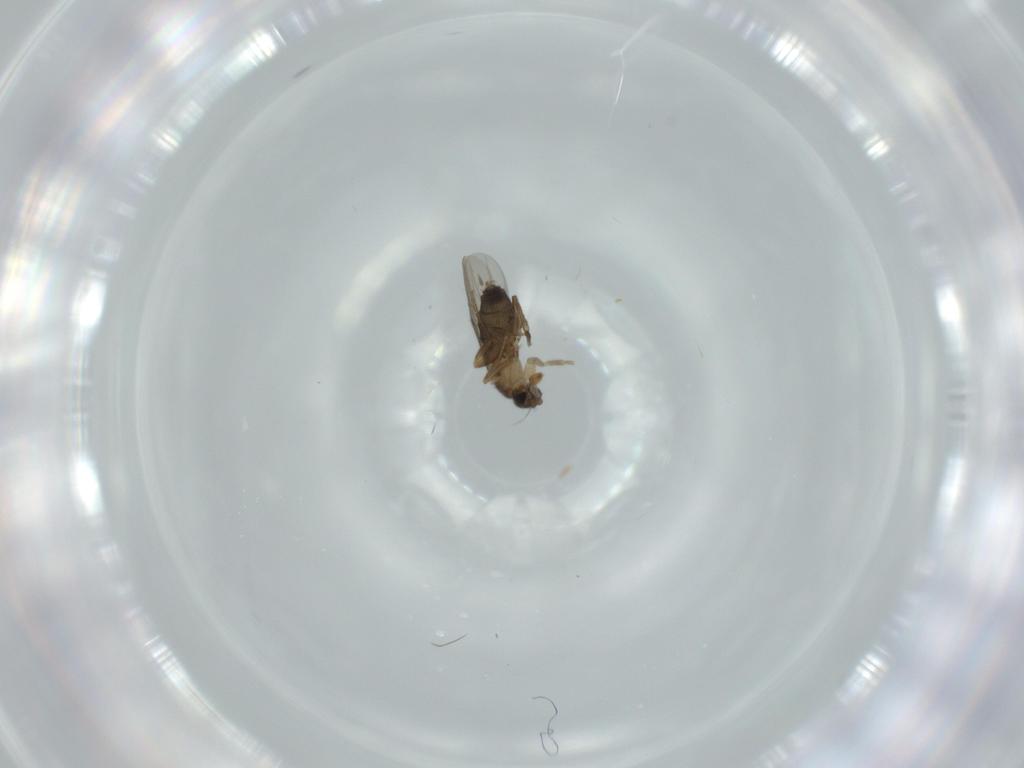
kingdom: Animalia
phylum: Arthropoda
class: Insecta
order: Diptera
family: Phoridae
